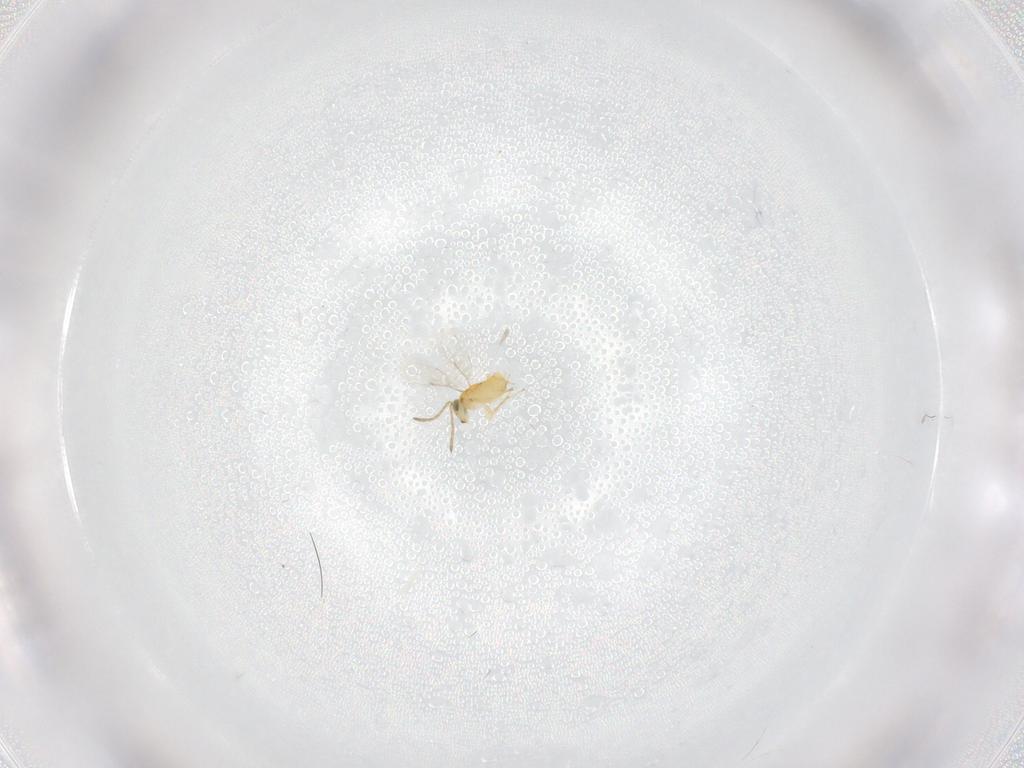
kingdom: Animalia
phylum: Arthropoda
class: Insecta
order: Hymenoptera
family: Aphelinidae
